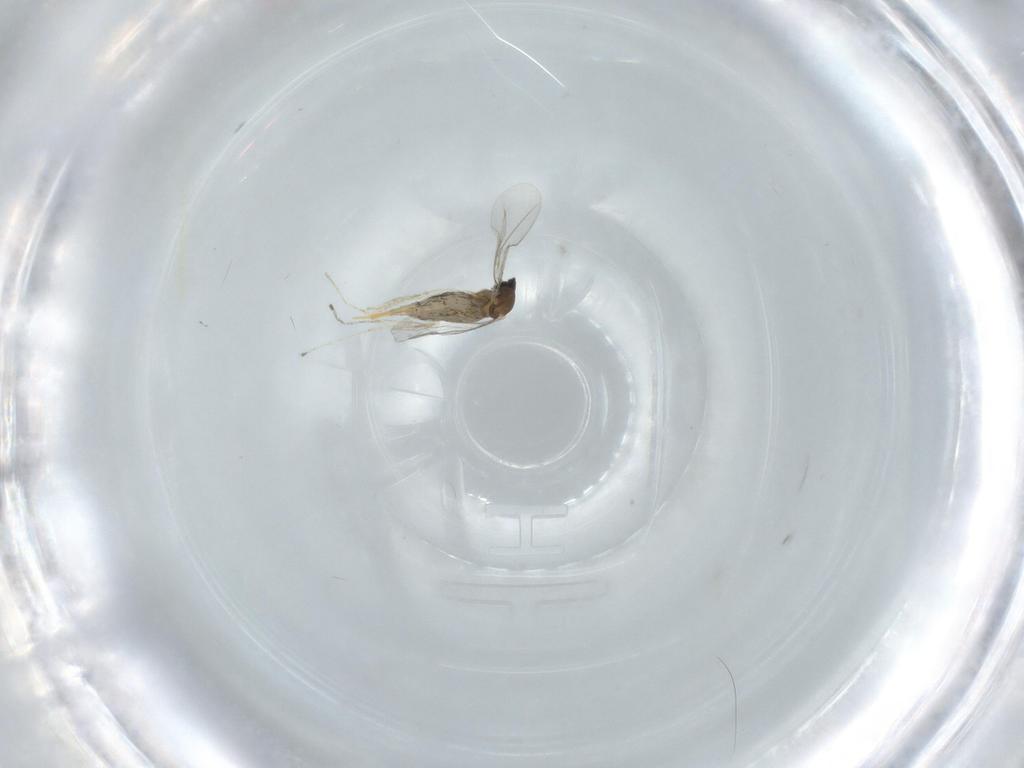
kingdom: Animalia
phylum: Arthropoda
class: Insecta
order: Diptera
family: Cecidomyiidae
